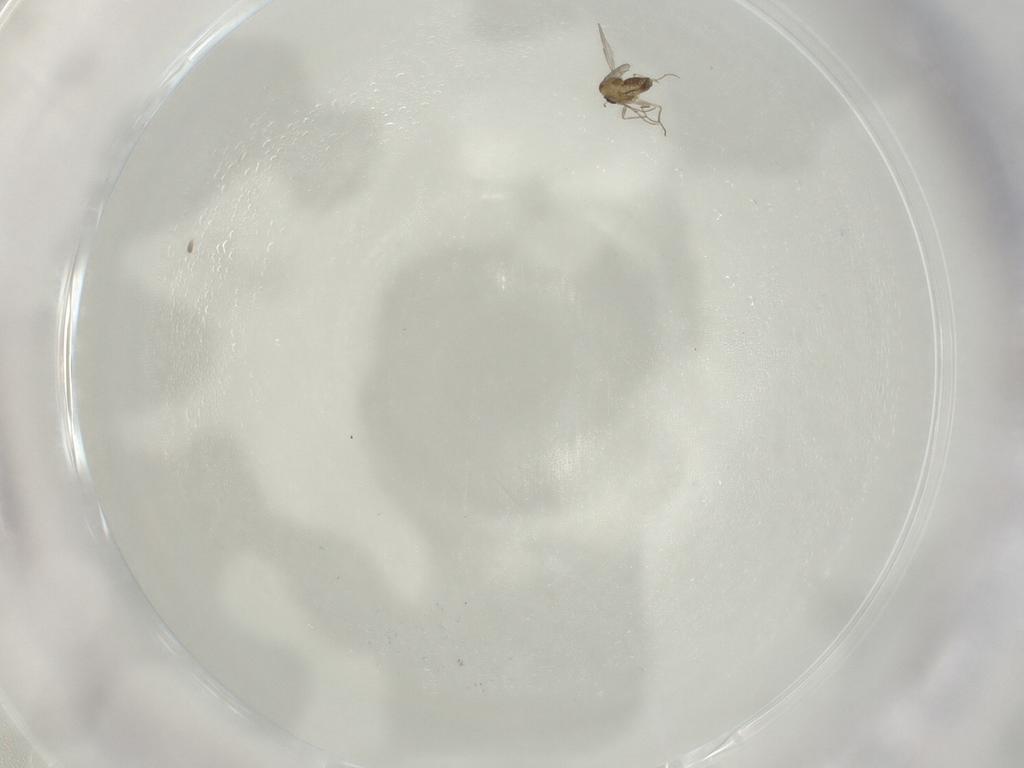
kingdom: Animalia
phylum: Arthropoda
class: Insecta
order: Diptera
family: Chironomidae
